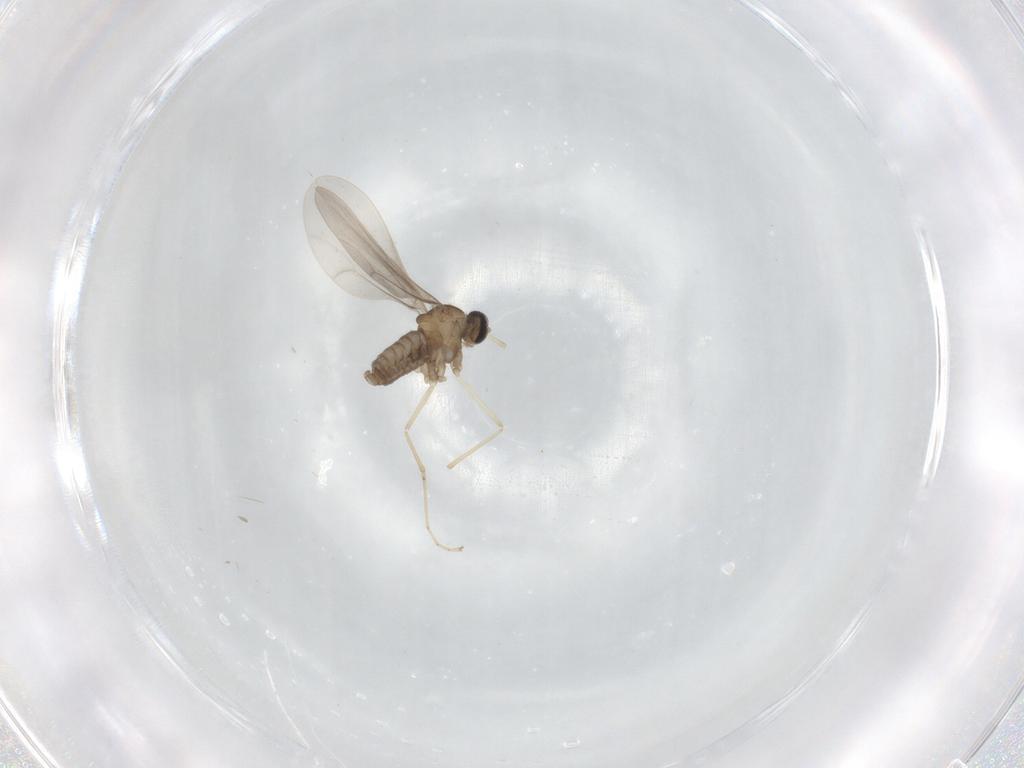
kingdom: Animalia
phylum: Arthropoda
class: Insecta
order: Diptera
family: Cecidomyiidae
